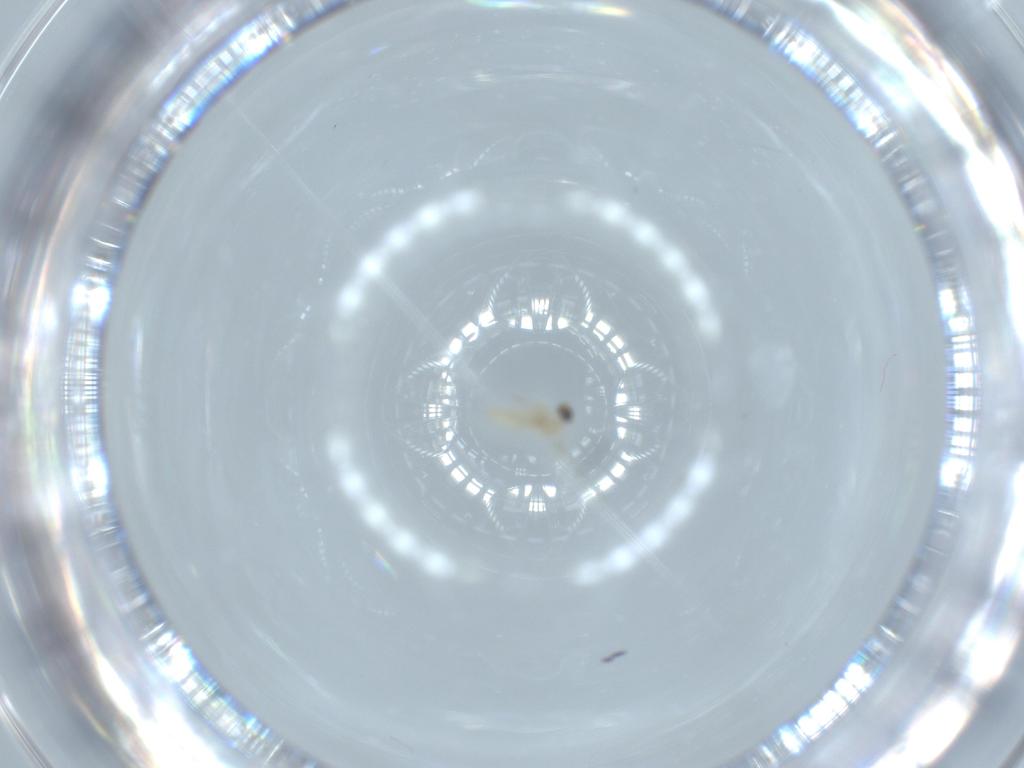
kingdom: Animalia
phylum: Arthropoda
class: Insecta
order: Diptera
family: Cecidomyiidae
